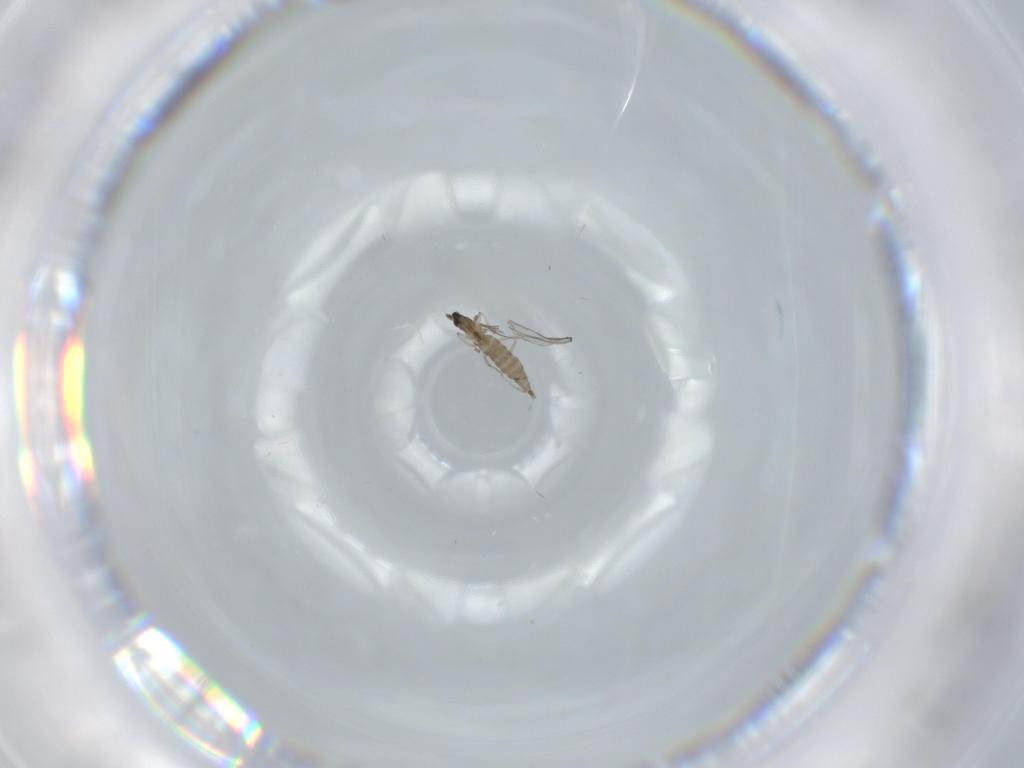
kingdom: Animalia
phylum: Arthropoda
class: Insecta
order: Diptera
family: Cecidomyiidae
